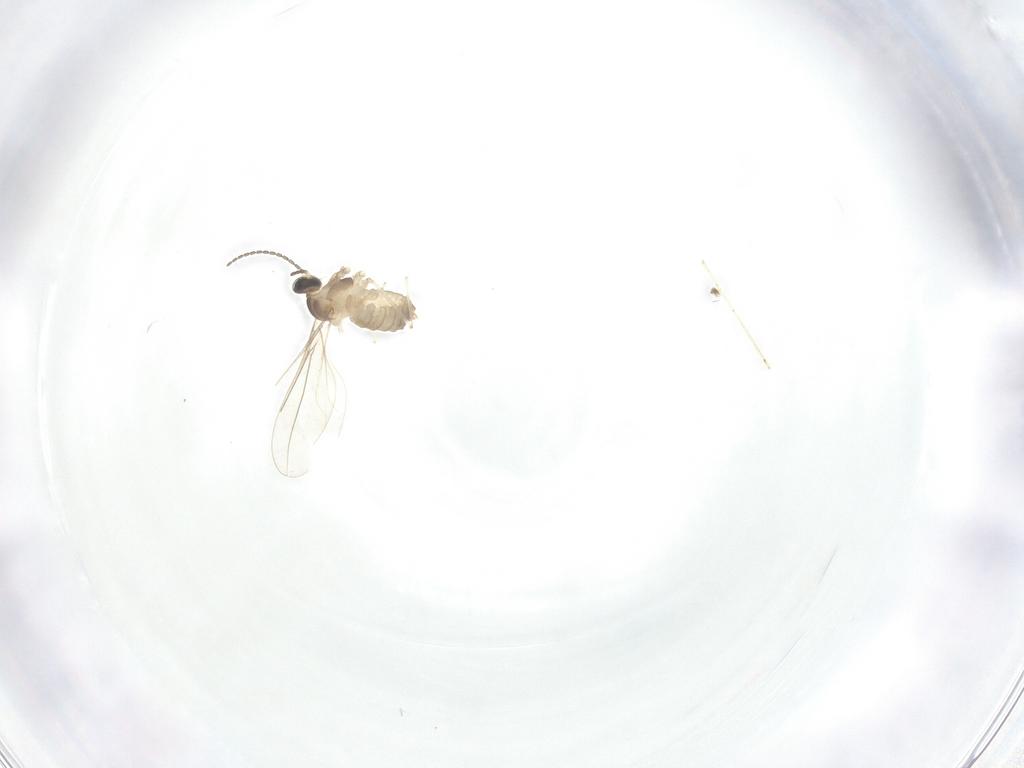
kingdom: Animalia
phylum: Arthropoda
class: Insecta
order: Diptera
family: Cecidomyiidae
